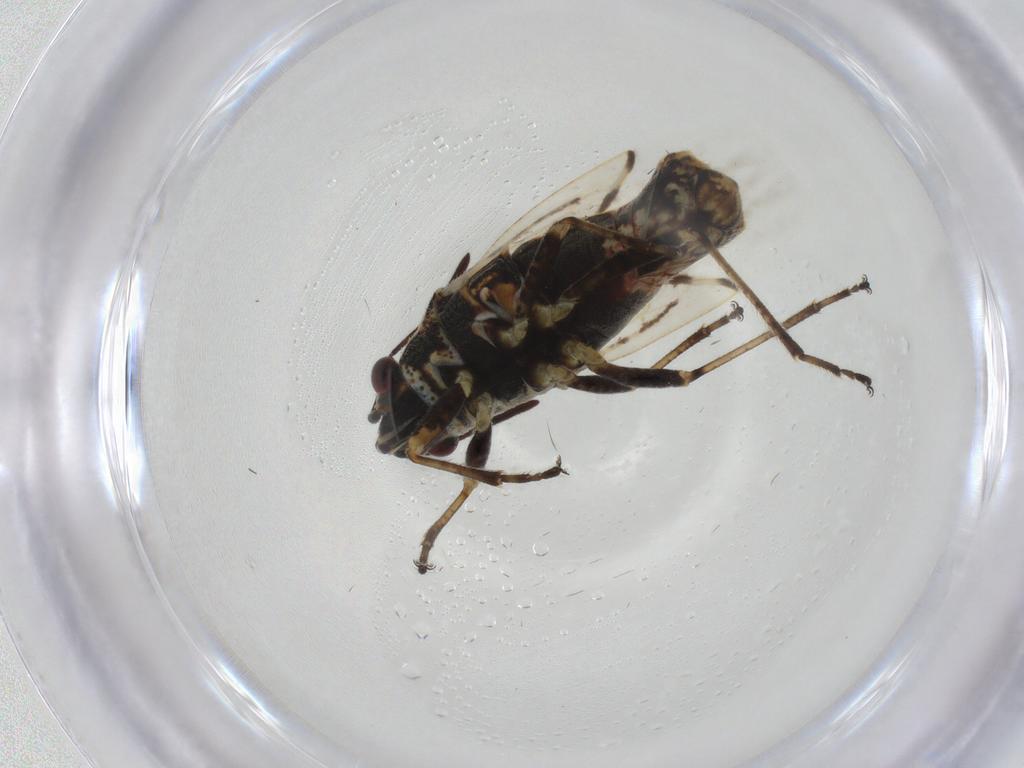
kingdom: Animalia
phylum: Arthropoda
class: Insecta
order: Hemiptera
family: Lygaeidae
